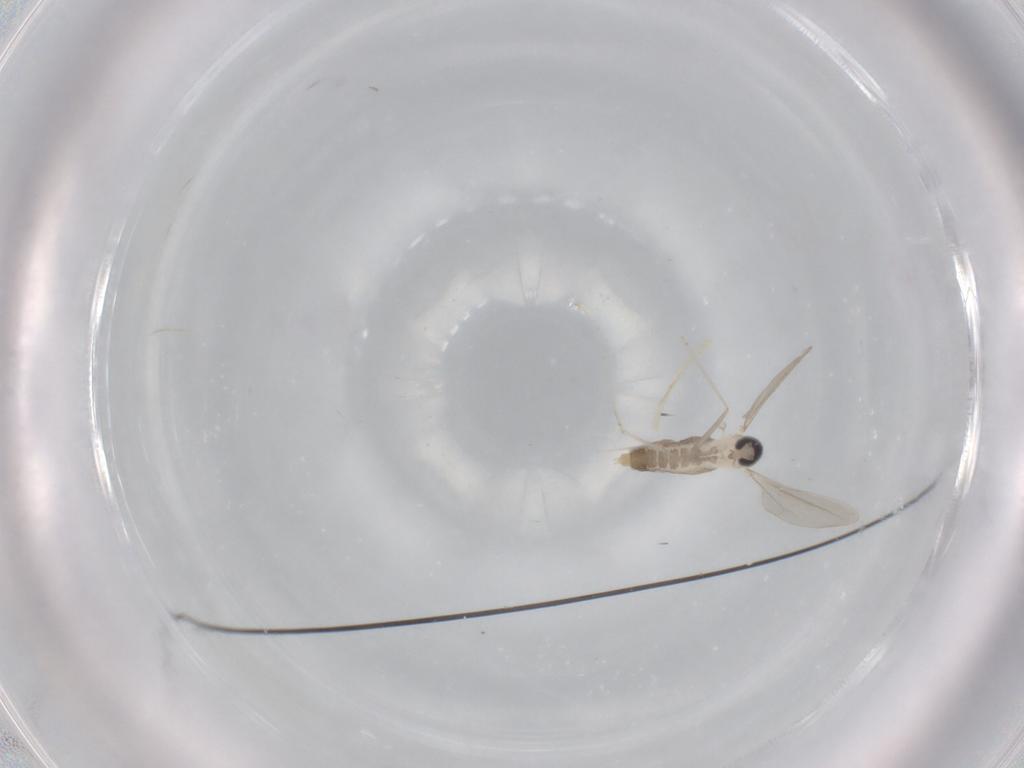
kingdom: Animalia
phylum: Arthropoda
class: Insecta
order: Diptera
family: Cecidomyiidae
